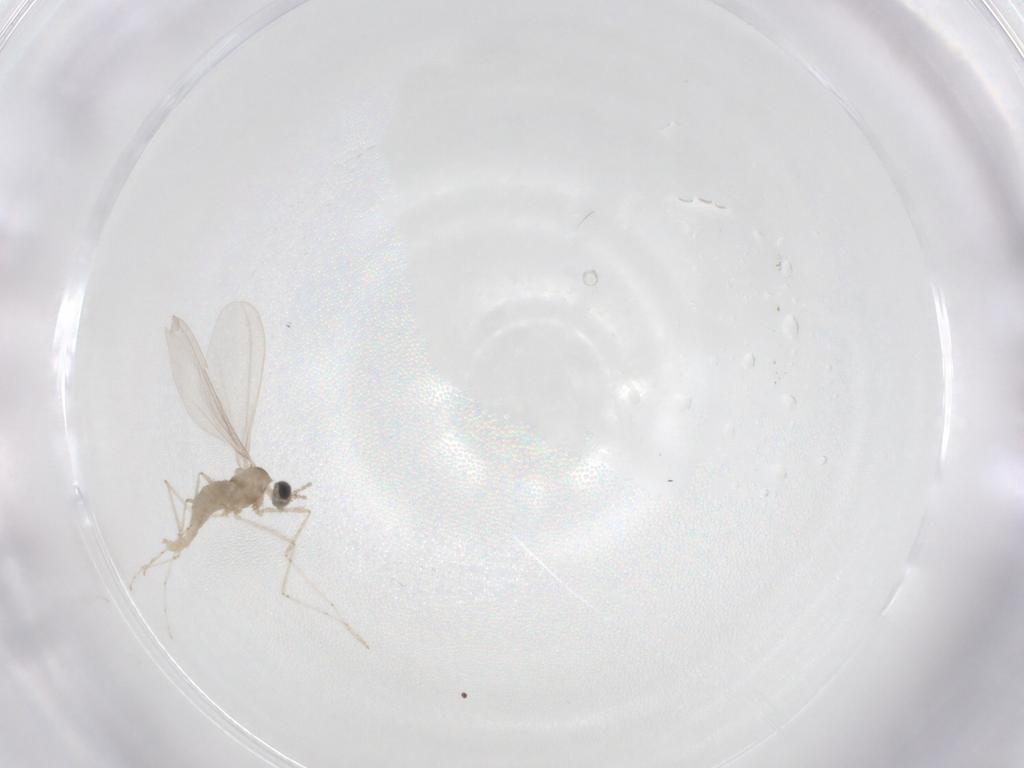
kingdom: Animalia
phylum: Arthropoda
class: Insecta
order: Diptera
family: Cecidomyiidae
